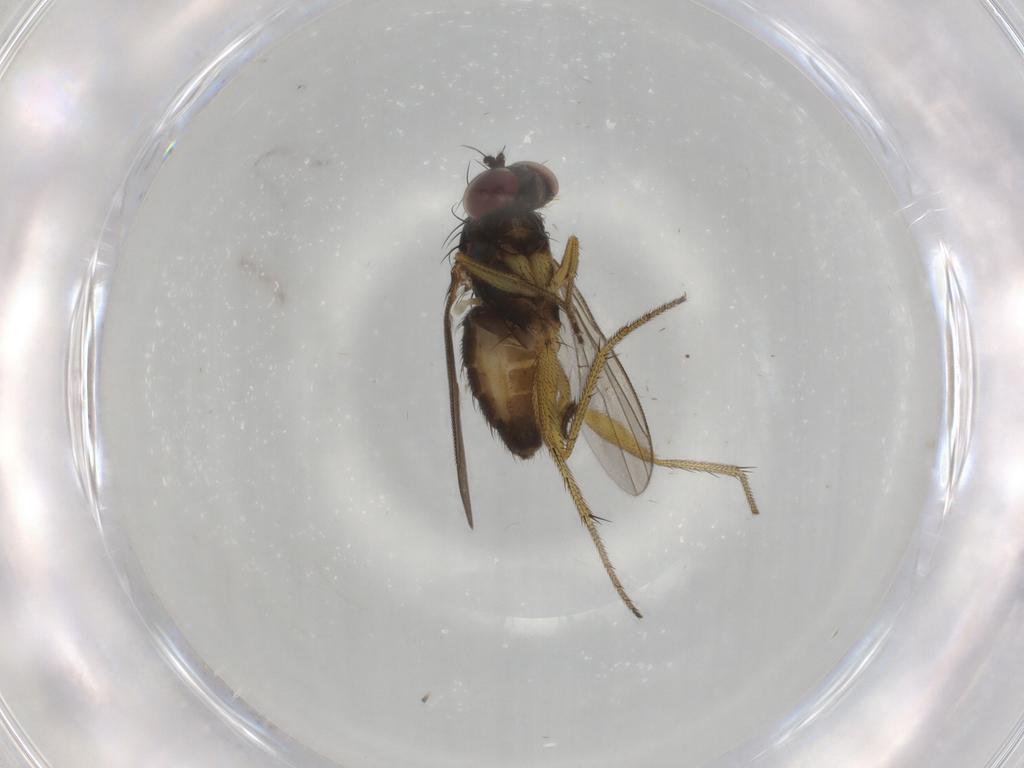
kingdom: Animalia
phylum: Arthropoda
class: Insecta
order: Diptera
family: Dolichopodidae
